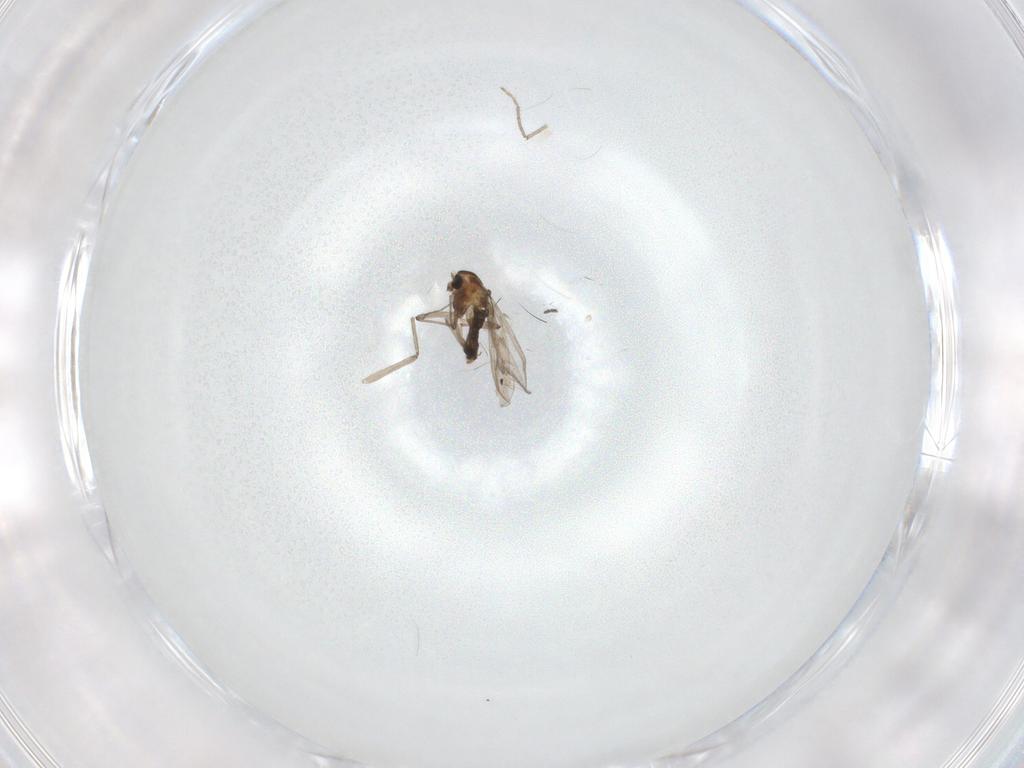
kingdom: Animalia
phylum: Arthropoda
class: Insecta
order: Diptera
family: Chironomidae
